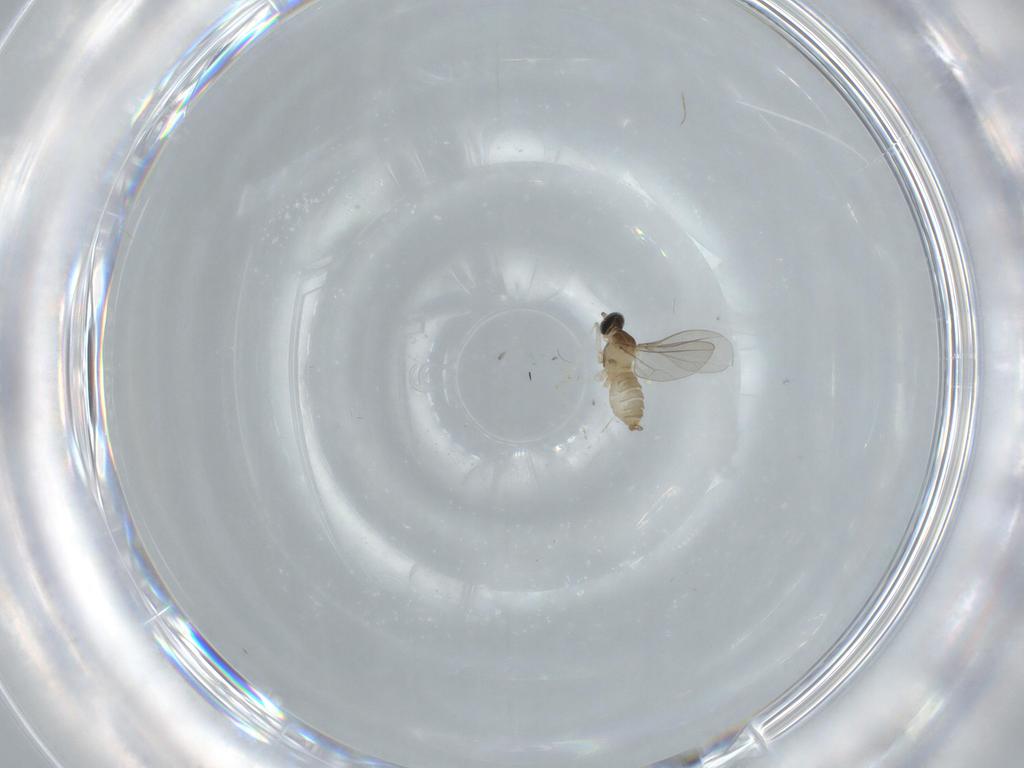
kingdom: Animalia
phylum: Arthropoda
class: Insecta
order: Diptera
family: Cecidomyiidae
